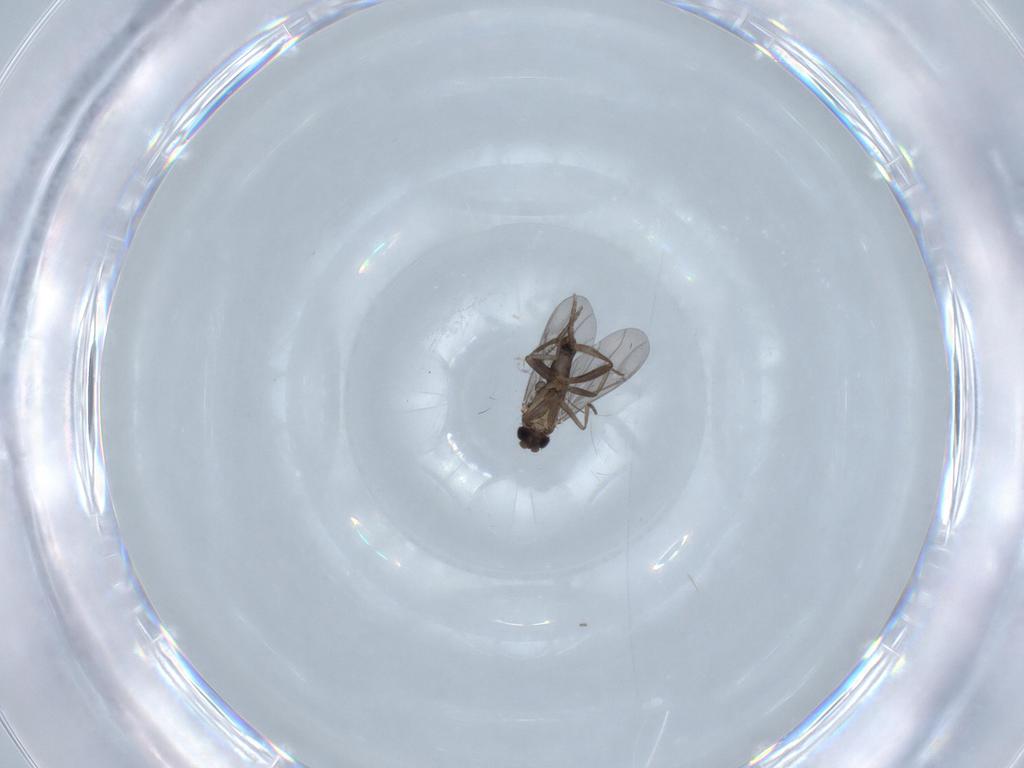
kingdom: Animalia
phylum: Arthropoda
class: Insecta
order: Diptera
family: Ceratopogonidae
